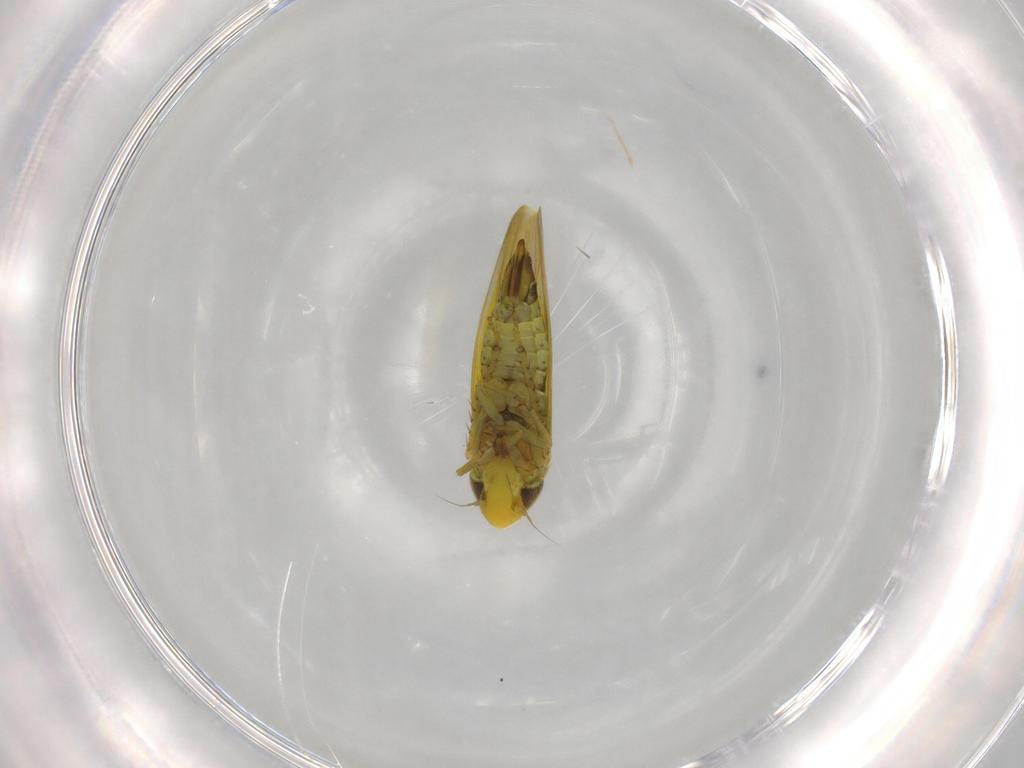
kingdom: Animalia
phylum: Arthropoda
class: Insecta
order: Hemiptera
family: Cicadellidae
